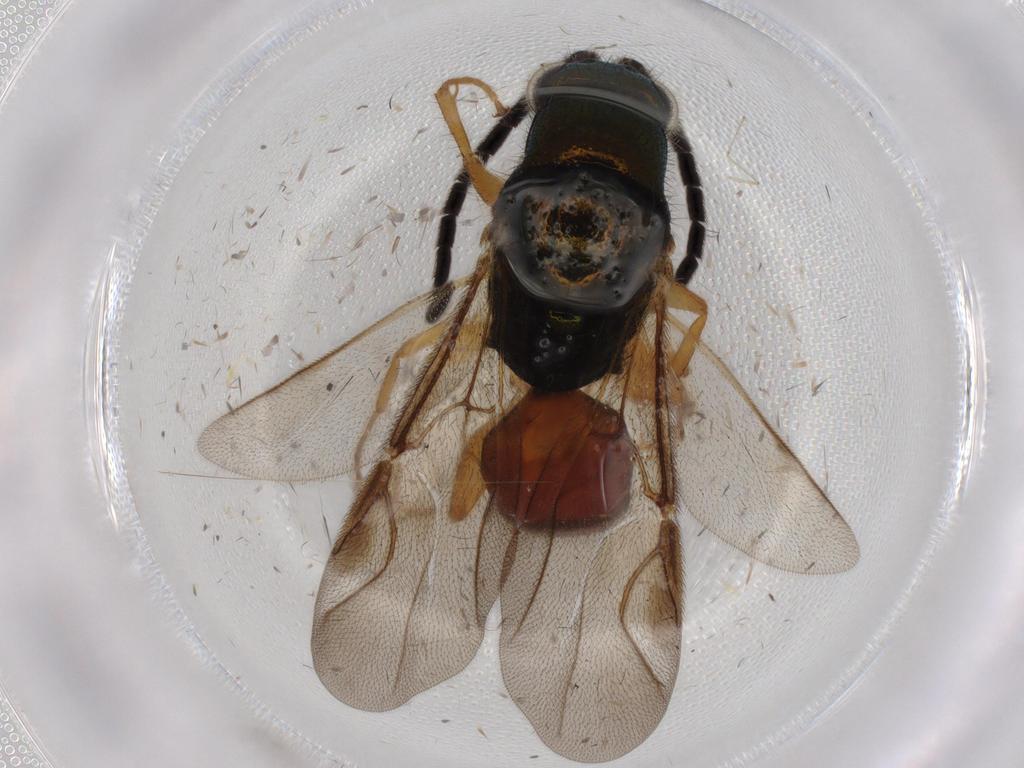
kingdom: Animalia
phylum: Arthropoda
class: Insecta
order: Hymenoptera
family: Chrysididae
